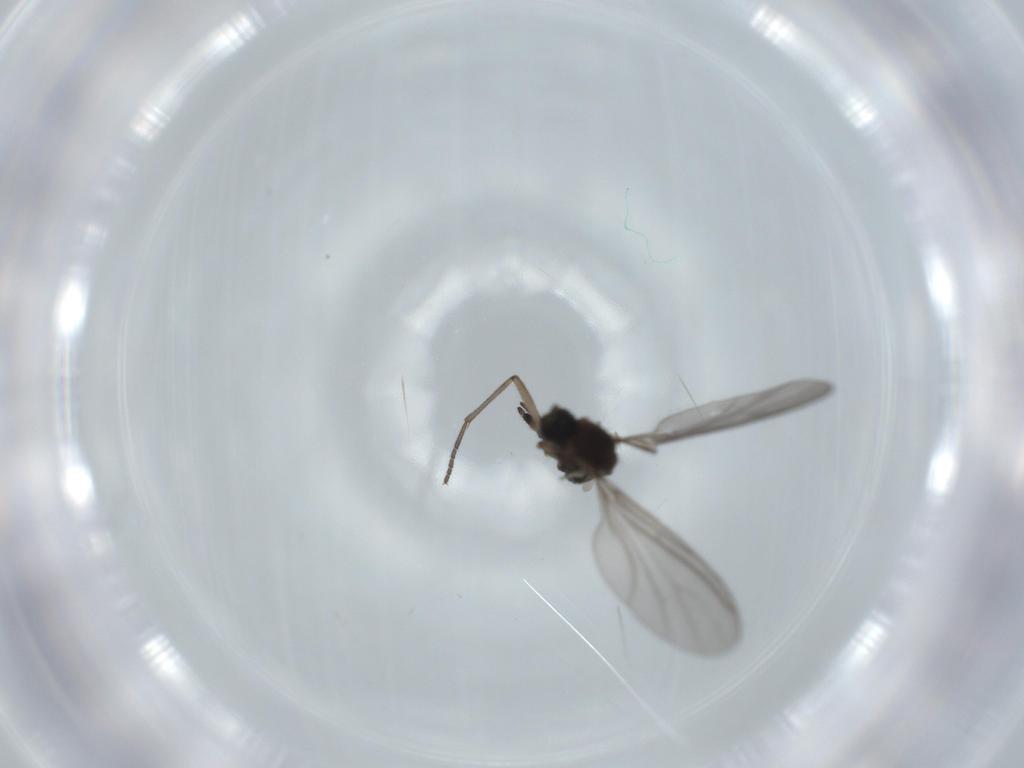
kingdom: Animalia
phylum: Arthropoda
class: Insecta
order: Diptera
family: Sciaridae
